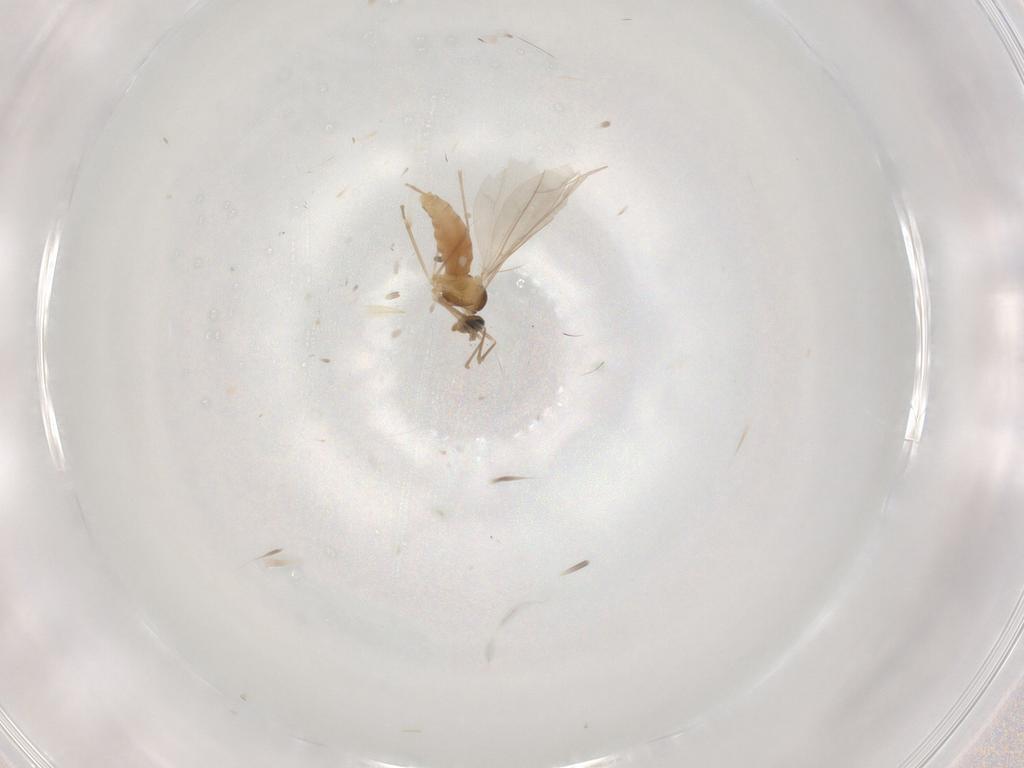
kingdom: Animalia
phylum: Arthropoda
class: Insecta
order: Diptera
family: Cecidomyiidae
